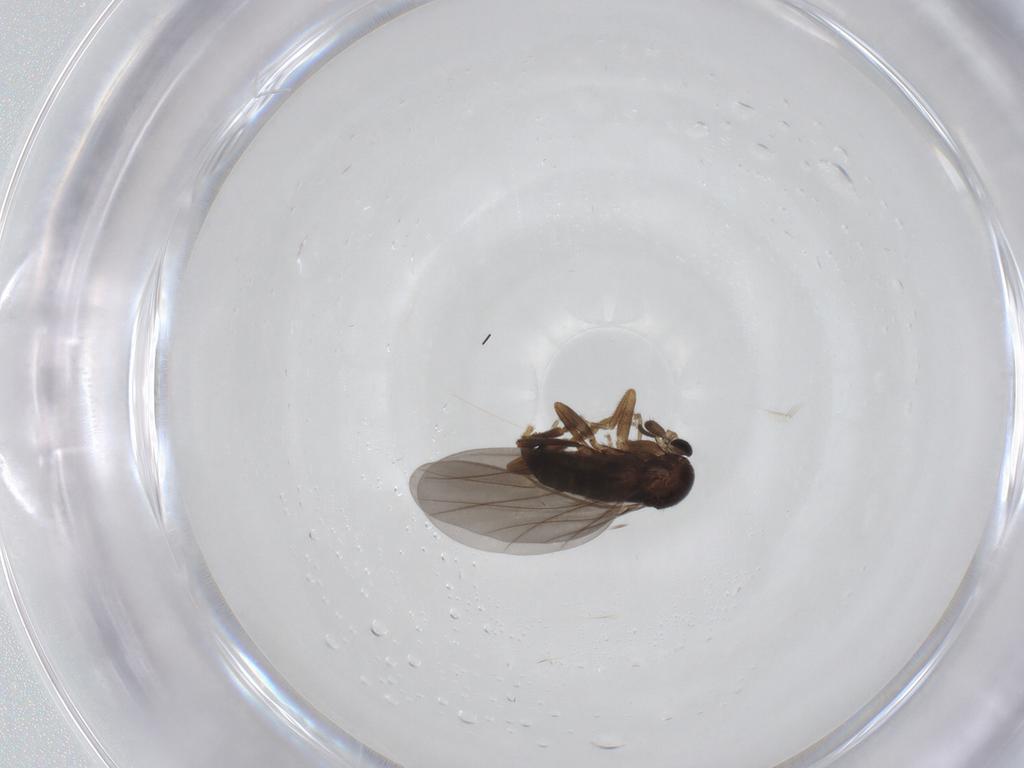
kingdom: Animalia
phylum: Arthropoda
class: Insecta
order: Diptera
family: Phoridae
